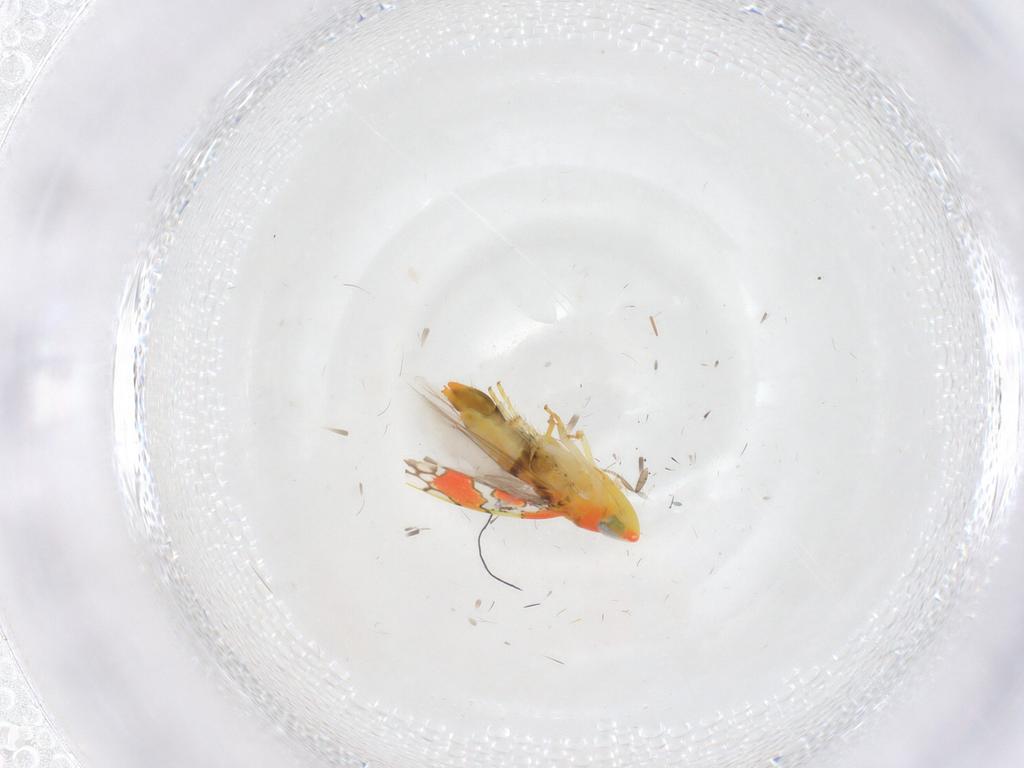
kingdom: Animalia
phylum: Arthropoda
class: Insecta
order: Hemiptera
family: Cicadellidae
